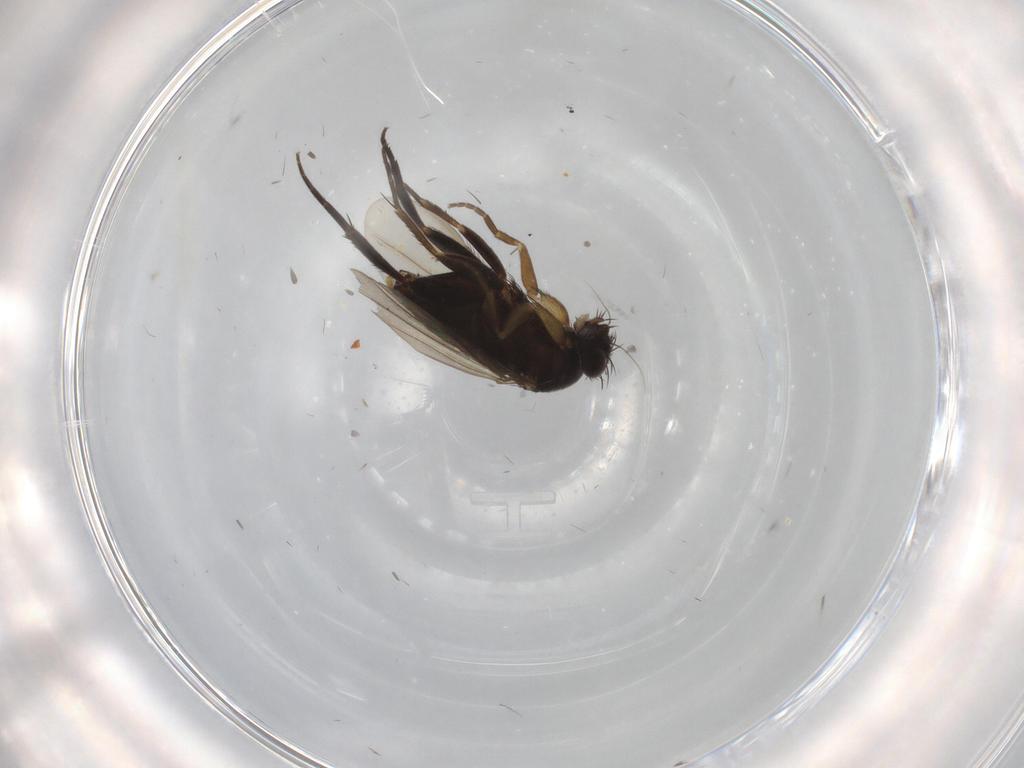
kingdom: Animalia
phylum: Arthropoda
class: Insecta
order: Diptera
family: Phoridae
